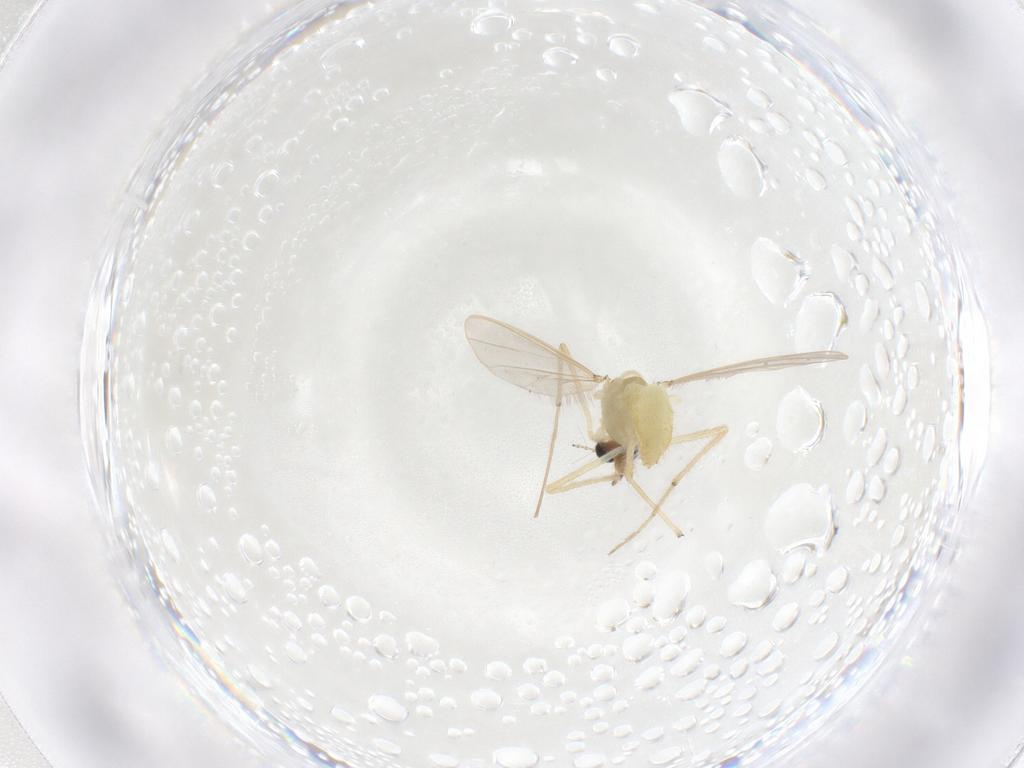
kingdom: Animalia
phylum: Arthropoda
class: Insecta
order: Diptera
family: Chironomidae
